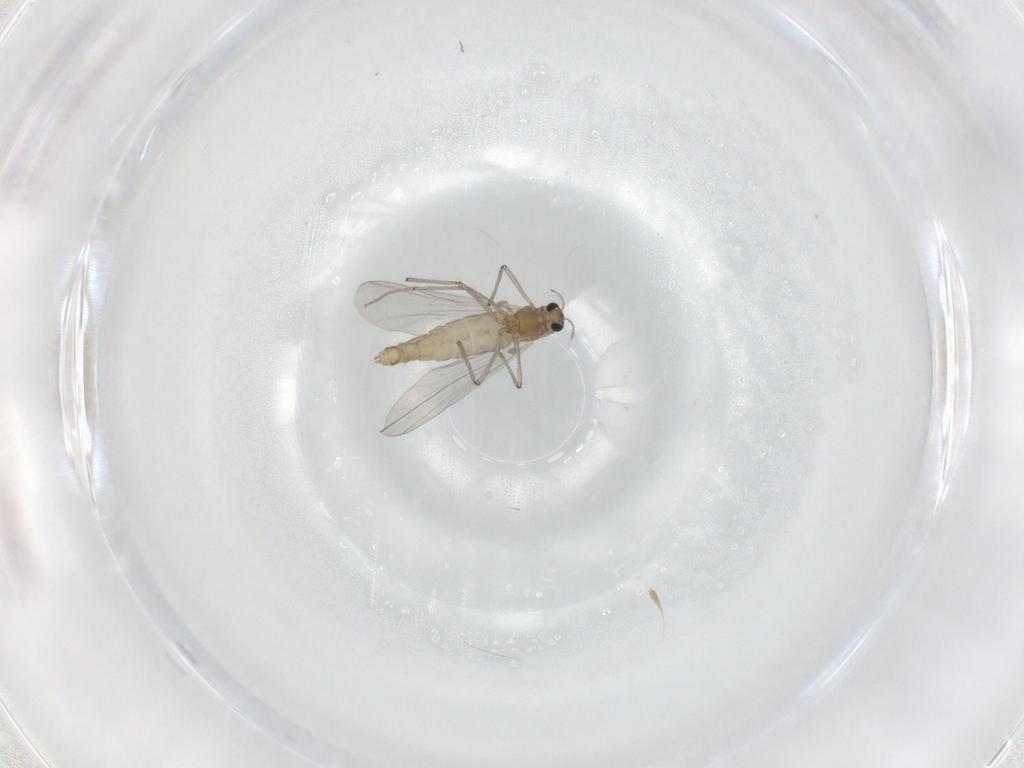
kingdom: Animalia
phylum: Arthropoda
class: Insecta
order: Diptera
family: Chironomidae
